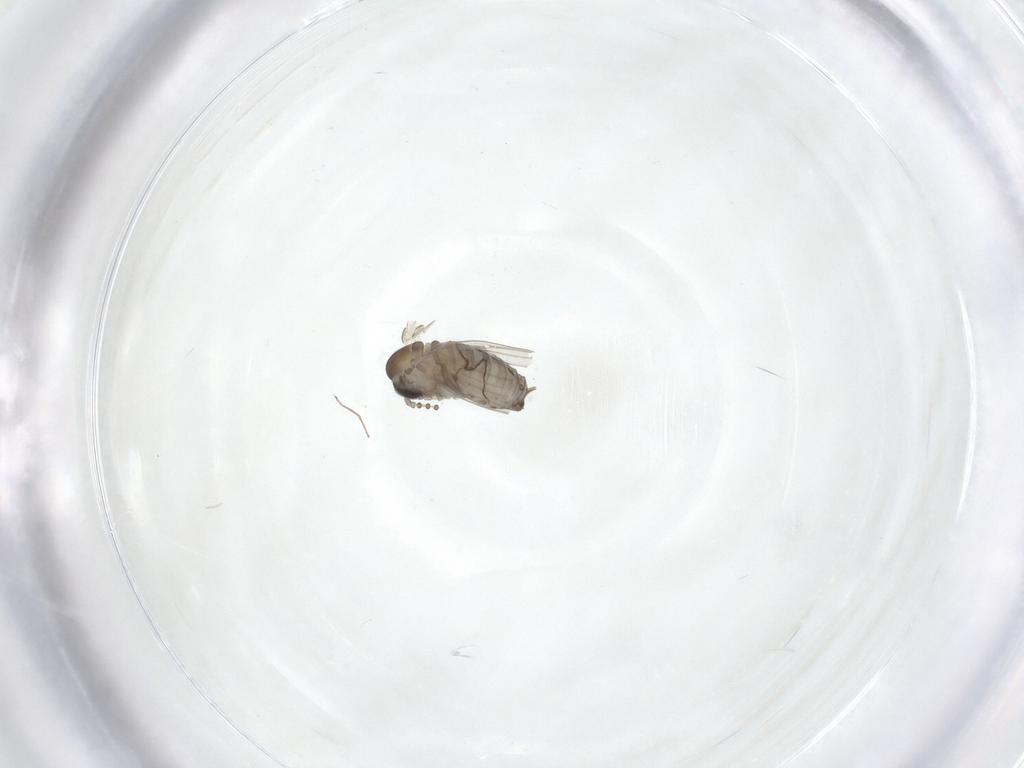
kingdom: Animalia
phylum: Arthropoda
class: Insecta
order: Diptera
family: Psychodidae
